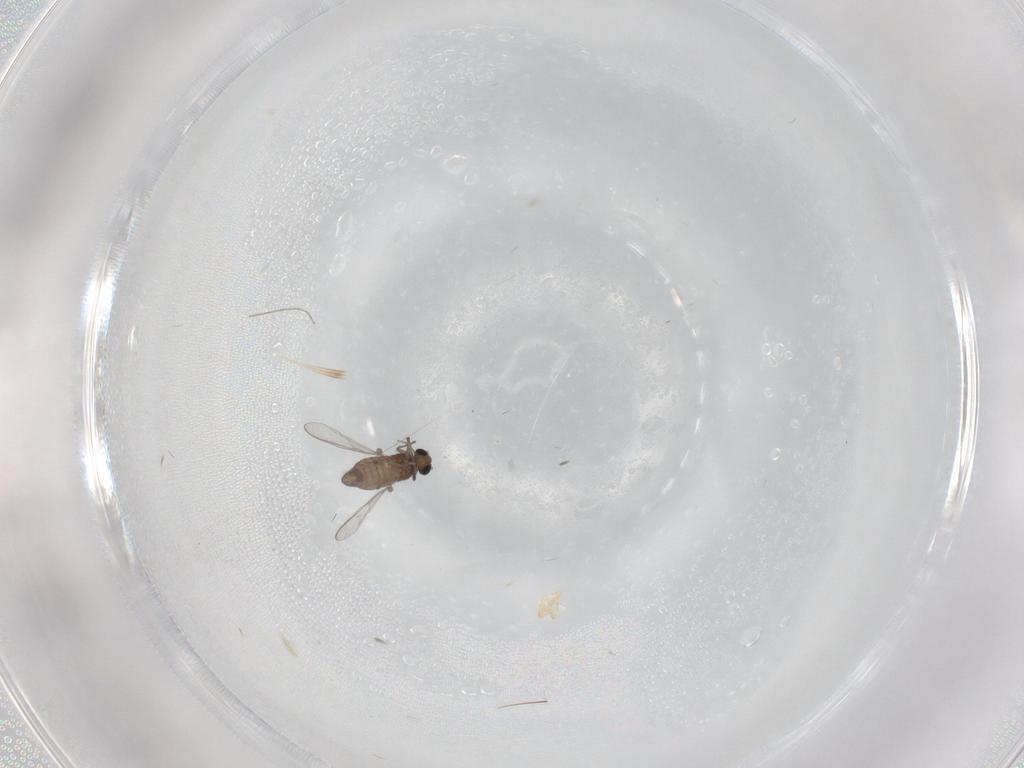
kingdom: Animalia
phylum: Arthropoda
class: Insecta
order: Diptera
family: Chironomidae
